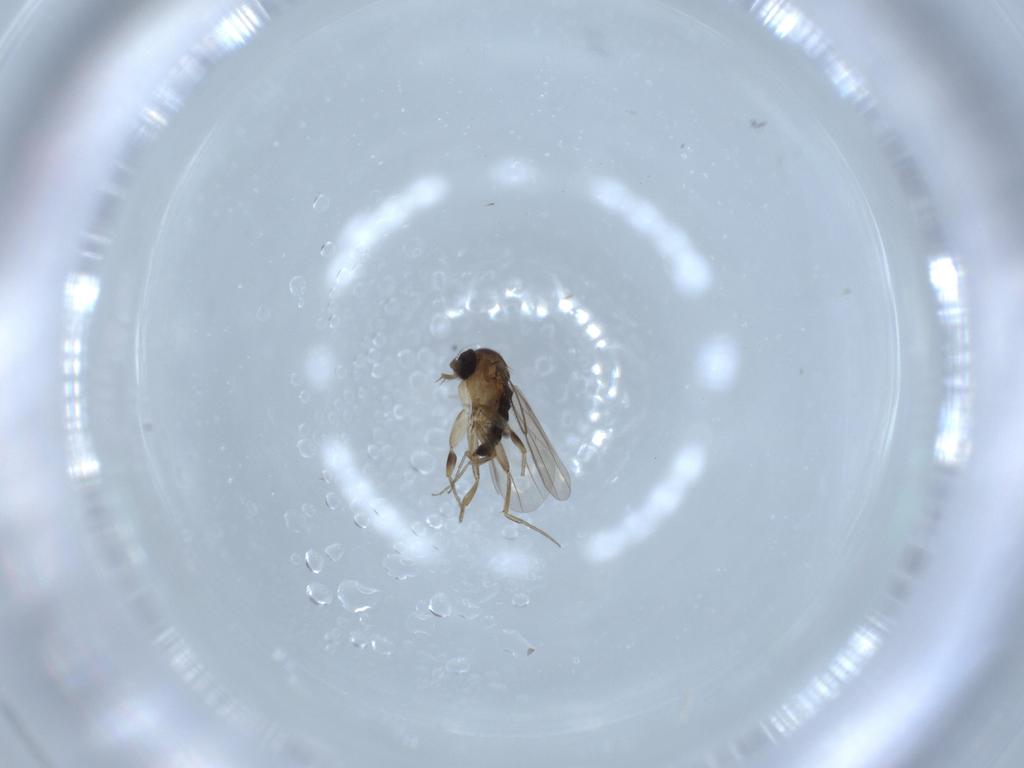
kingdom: Animalia
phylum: Arthropoda
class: Insecta
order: Diptera
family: Phoridae
